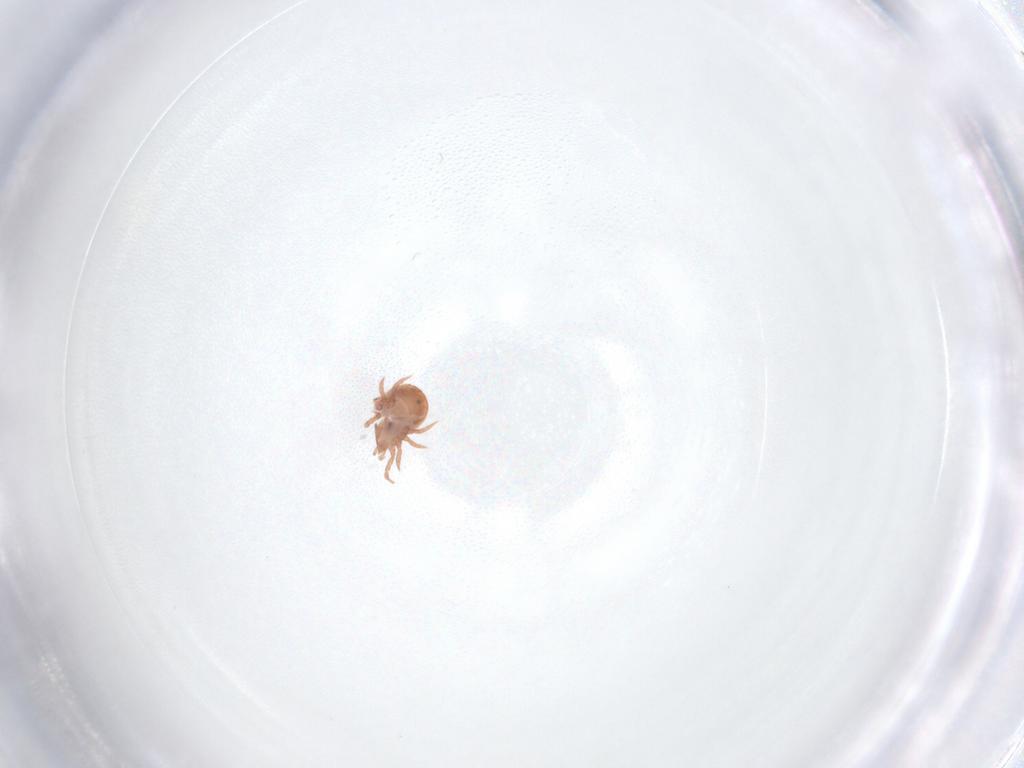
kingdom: Animalia
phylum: Arthropoda
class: Arachnida
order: Mesostigmata
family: Zerconidae
